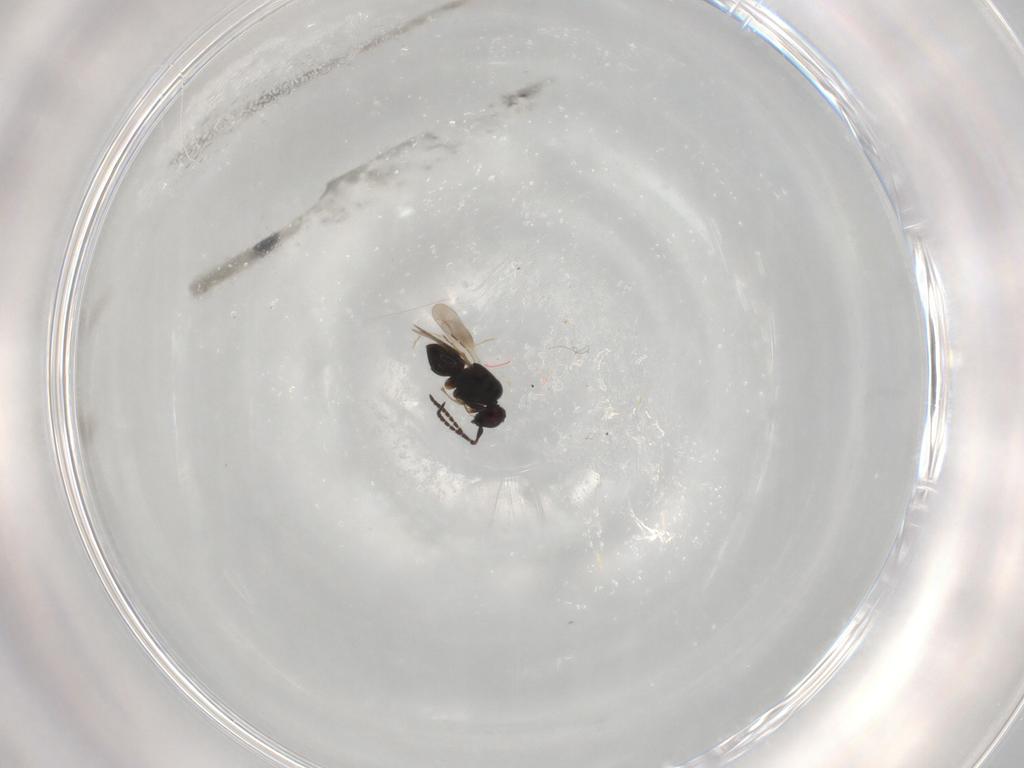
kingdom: Animalia
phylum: Arthropoda
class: Insecta
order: Hymenoptera
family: Ceraphronidae
